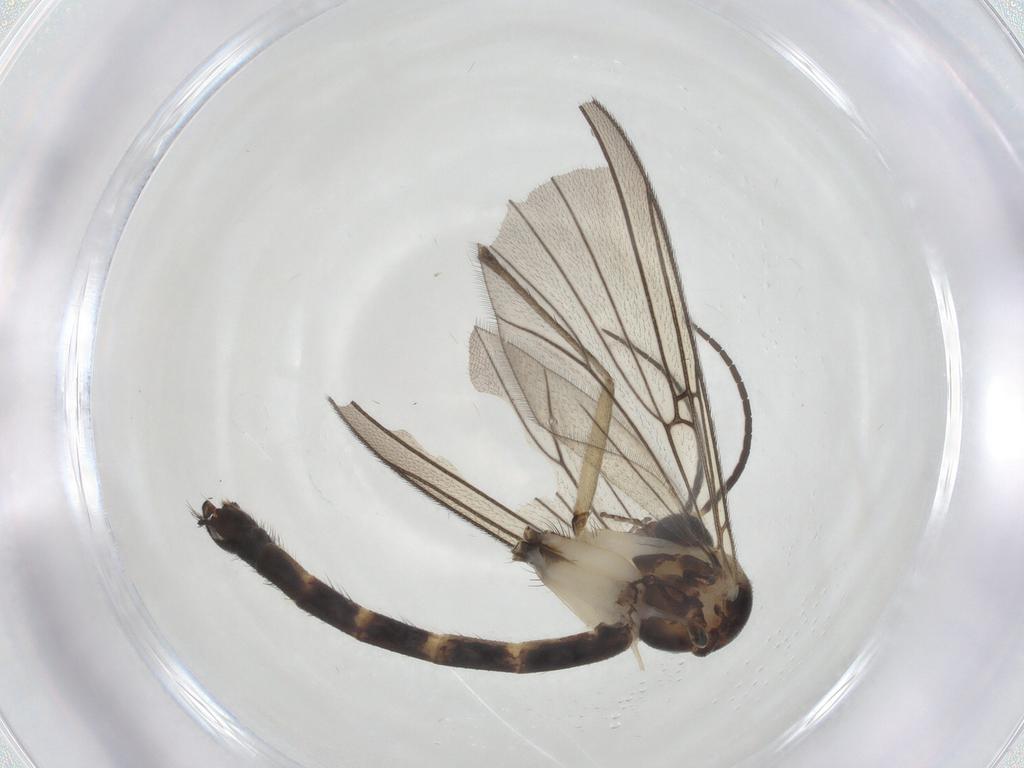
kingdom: Animalia
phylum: Arthropoda
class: Insecta
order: Diptera
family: Mycetophilidae
